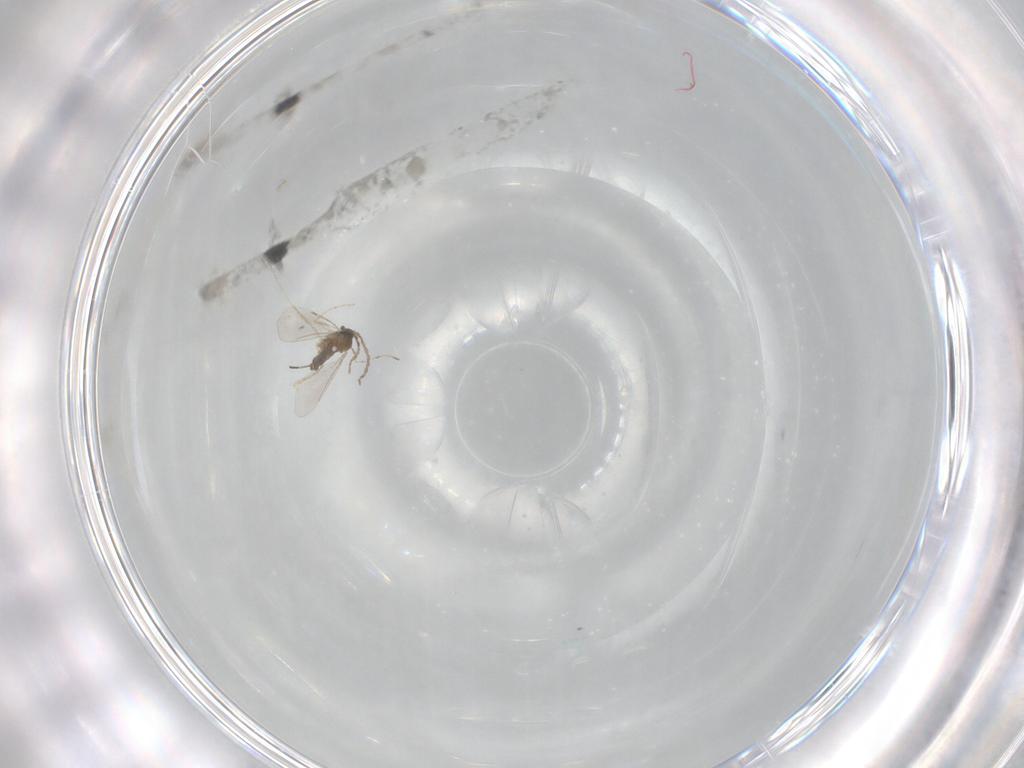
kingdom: Animalia
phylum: Arthropoda
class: Insecta
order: Diptera
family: Cecidomyiidae
